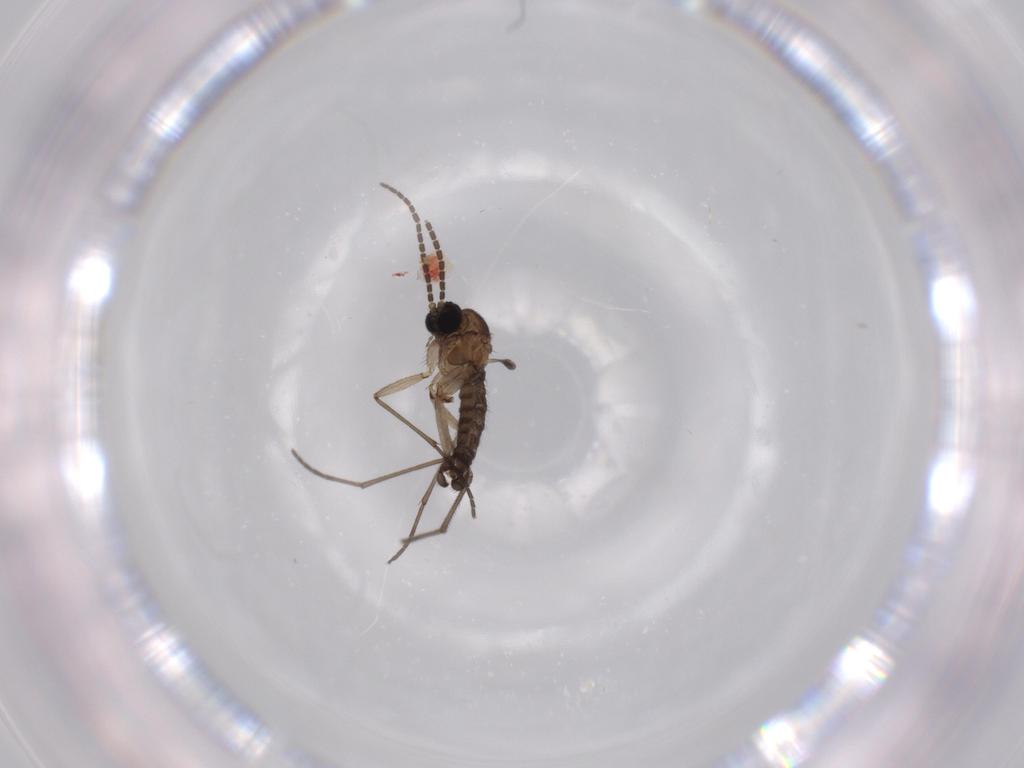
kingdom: Animalia
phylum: Arthropoda
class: Insecta
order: Diptera
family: Sciaridae
